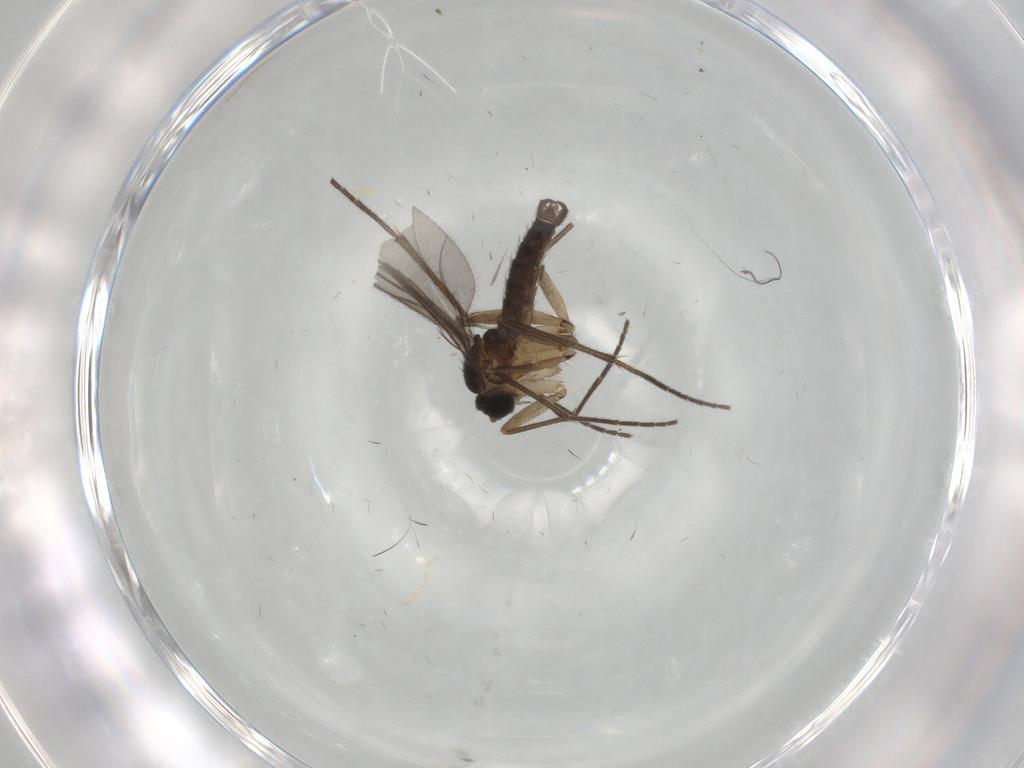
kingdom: Animalia
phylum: Arthropoda
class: Insecta
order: Diptera
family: Sciaridae
